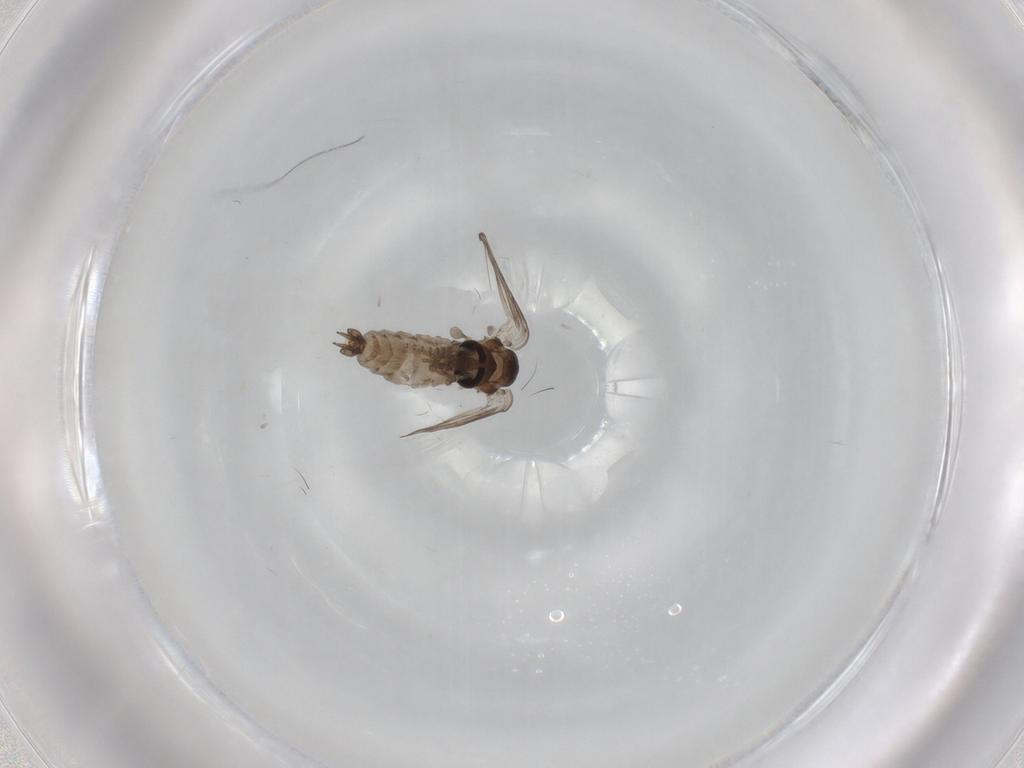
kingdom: Animalia
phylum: Arthropoda
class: Insecta
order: Diptera
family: Psychodidae
